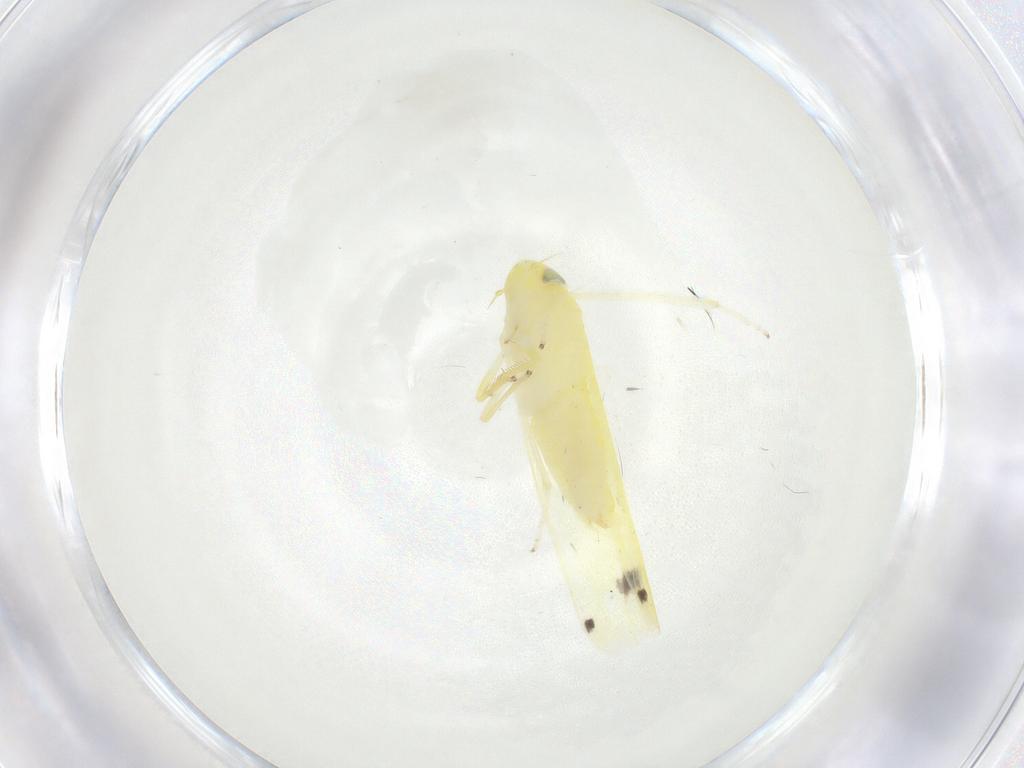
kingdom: Animalia
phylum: Arthropoda
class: Insecta
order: Hemiptera
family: Cicadellidae
